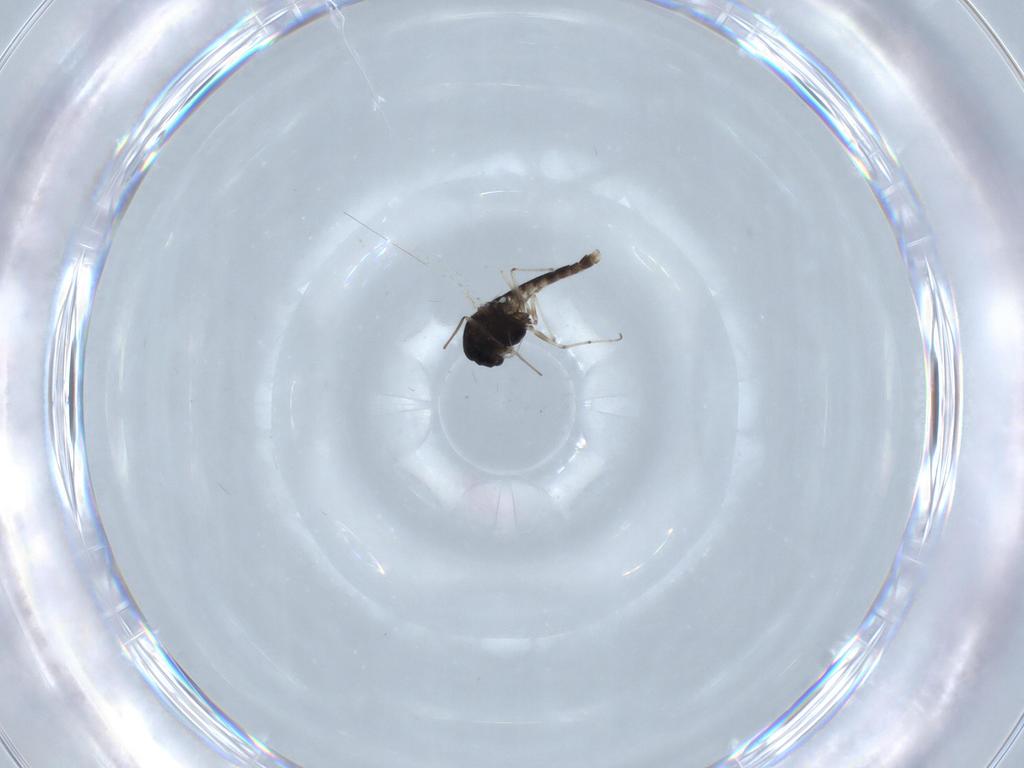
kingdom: Animalia
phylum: Arthropoda
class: Insecta
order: Diptera
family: Chironomidae
